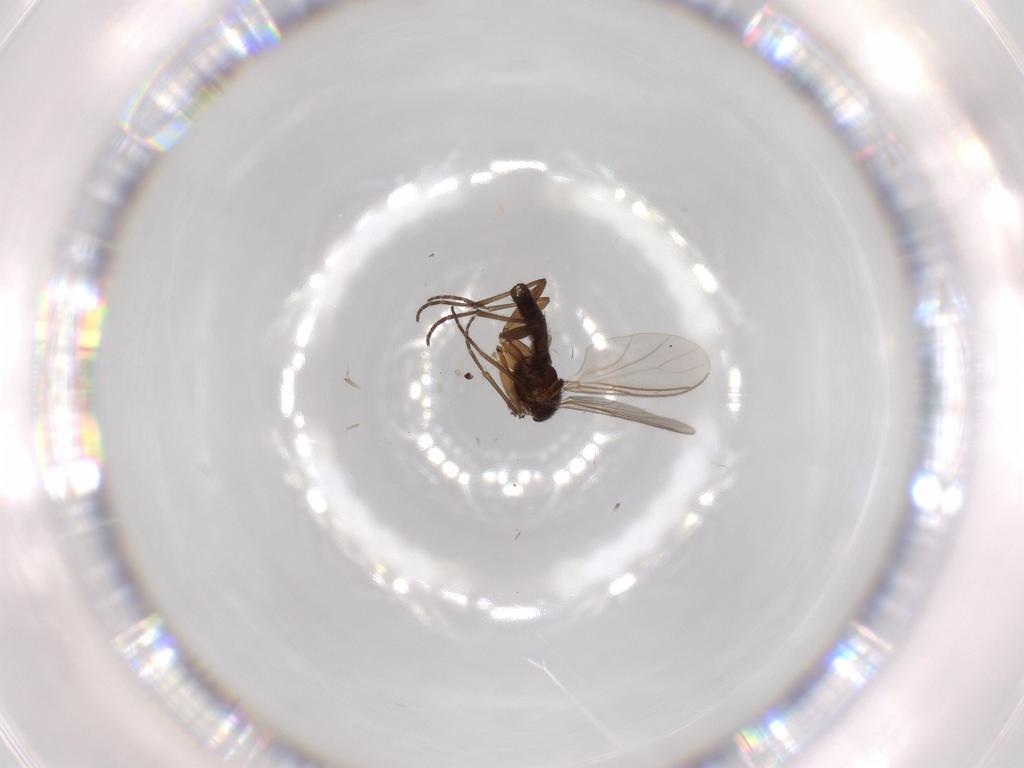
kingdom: Animalia
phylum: Arthropoda
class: Insecta
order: Diptera
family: Sciaridae
